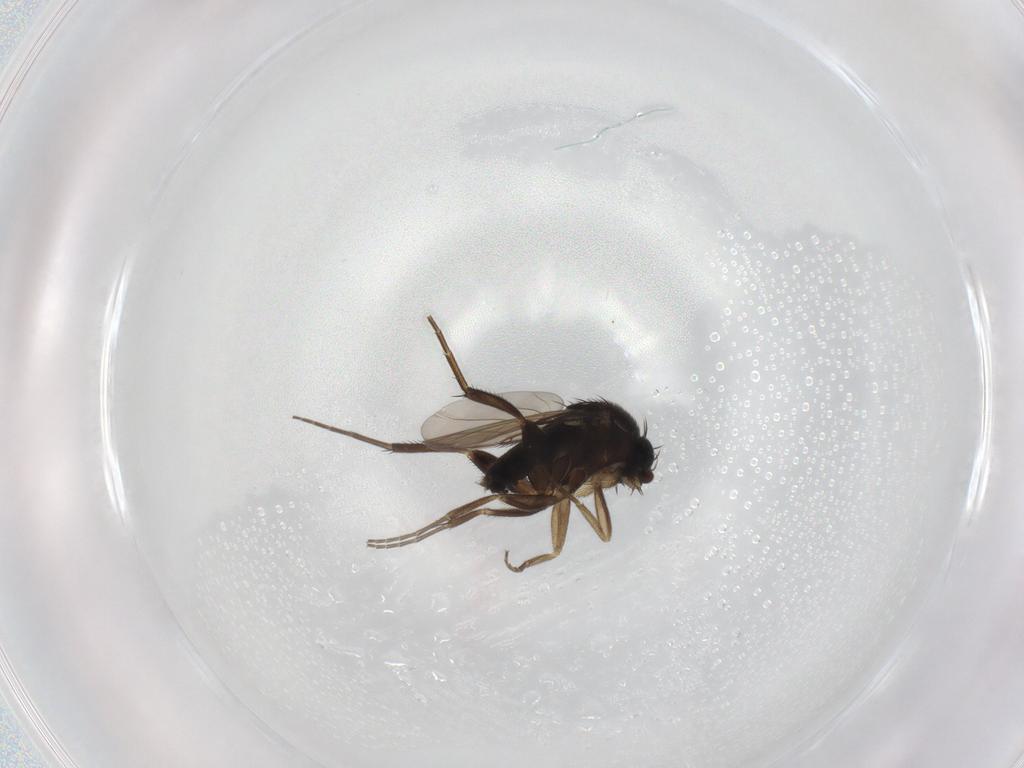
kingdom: Animalia
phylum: Arthropoda
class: Insecta
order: Diptera
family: Phoridae
